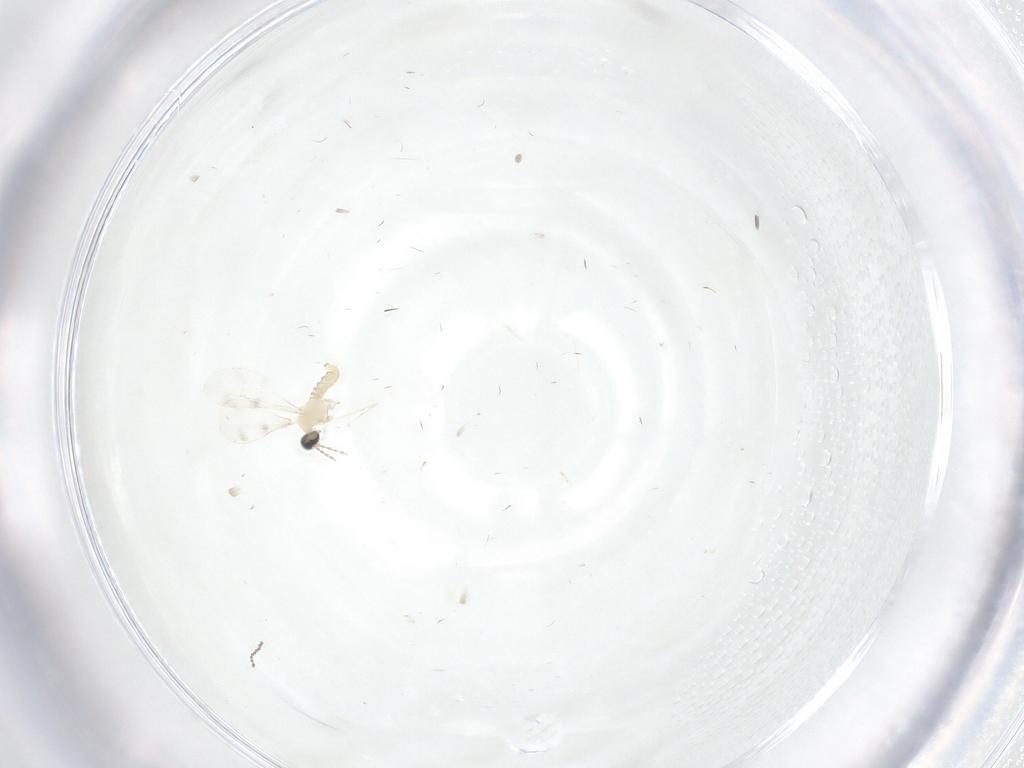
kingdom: Animalia
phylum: Arthropoda
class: Insecta
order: Diptera
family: Cecidomyiidae
